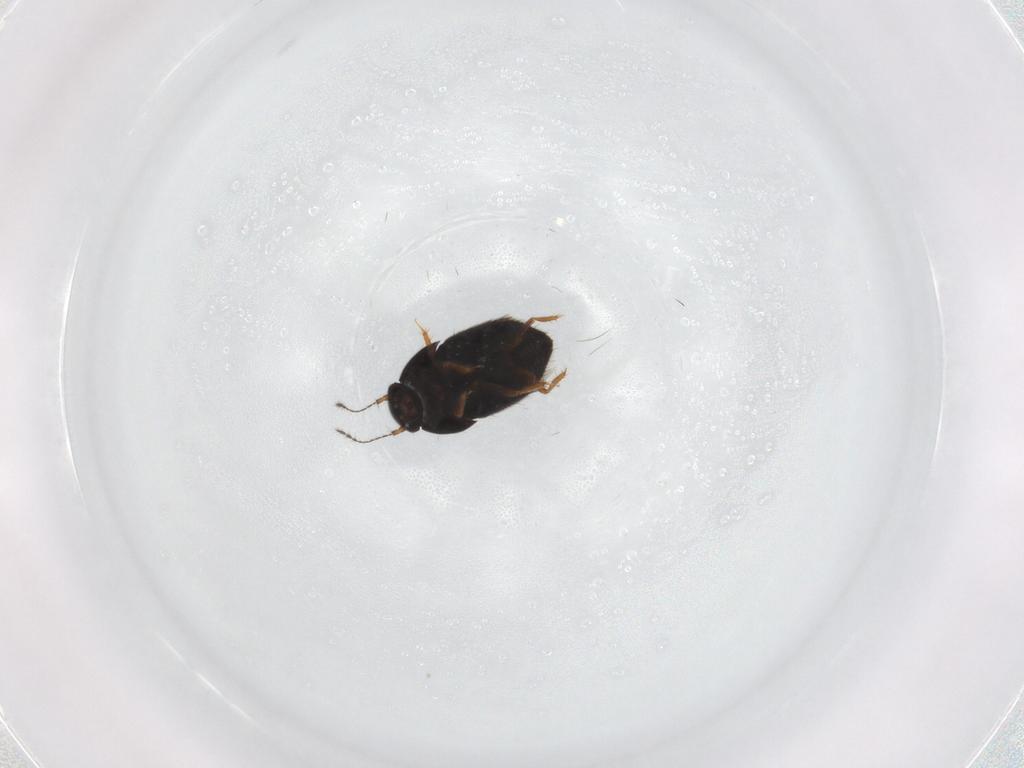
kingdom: Animalia
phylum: Arthropoda
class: Insecta
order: Coleoptera
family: Ptiliidae
